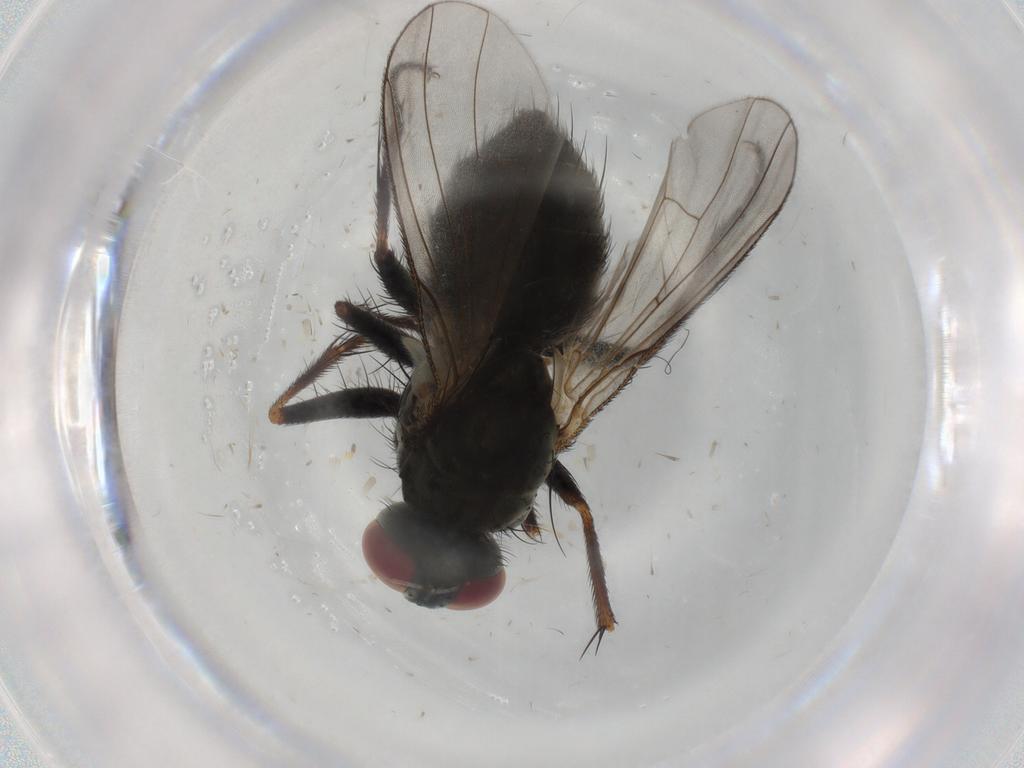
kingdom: Animalia
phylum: Arthropoda
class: Insecta
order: Diptera
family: Muscidae
